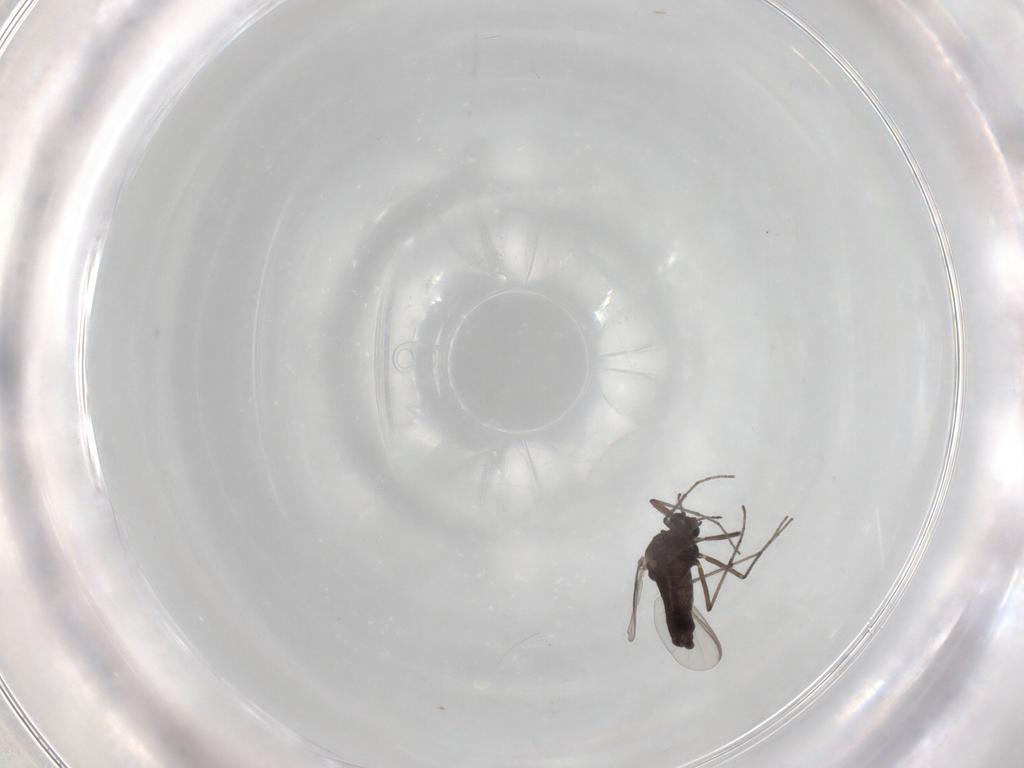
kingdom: Animalia
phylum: Arthropoda
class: Insecta
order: Diptera
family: Chironomidae
